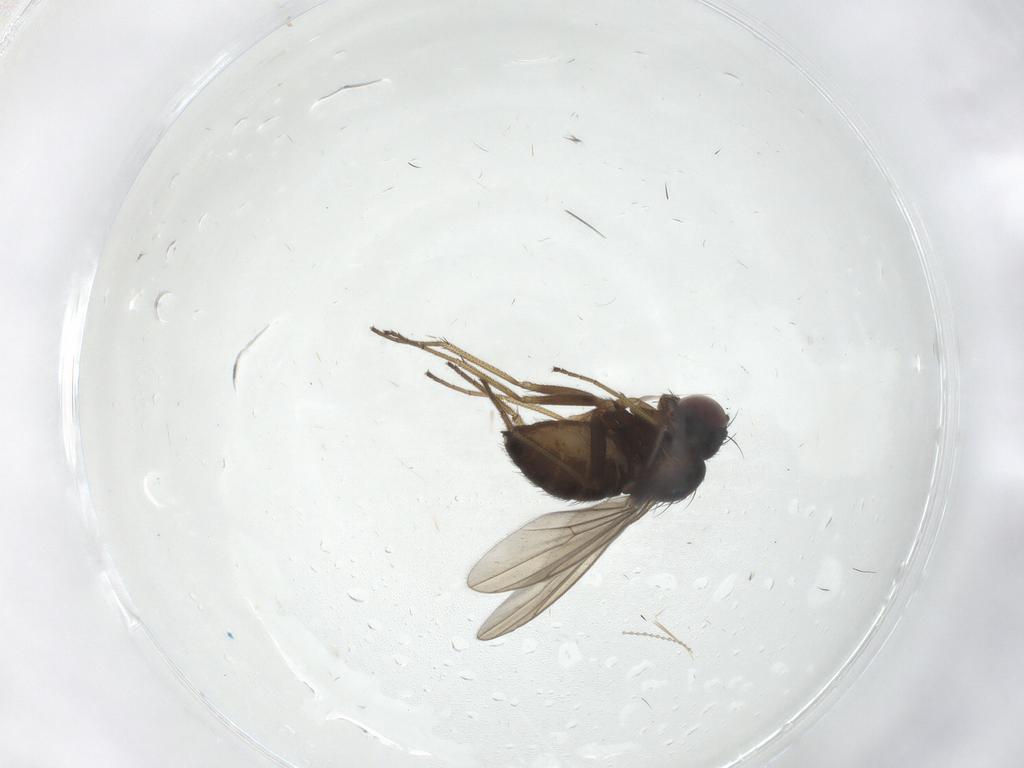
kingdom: Animalia
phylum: Arthropoda
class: Insecta
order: Diptera
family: Dolichopodidae
